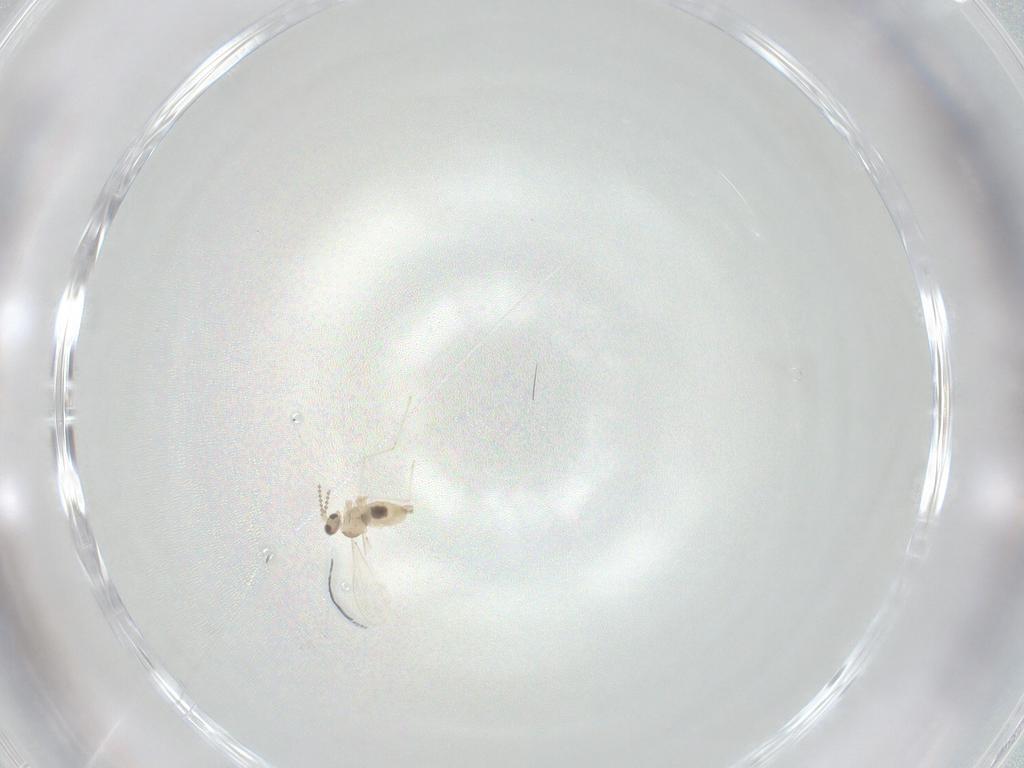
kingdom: Animalia
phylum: Arthropoda
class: Insecta
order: Diptera
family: Cecidomyiidae
